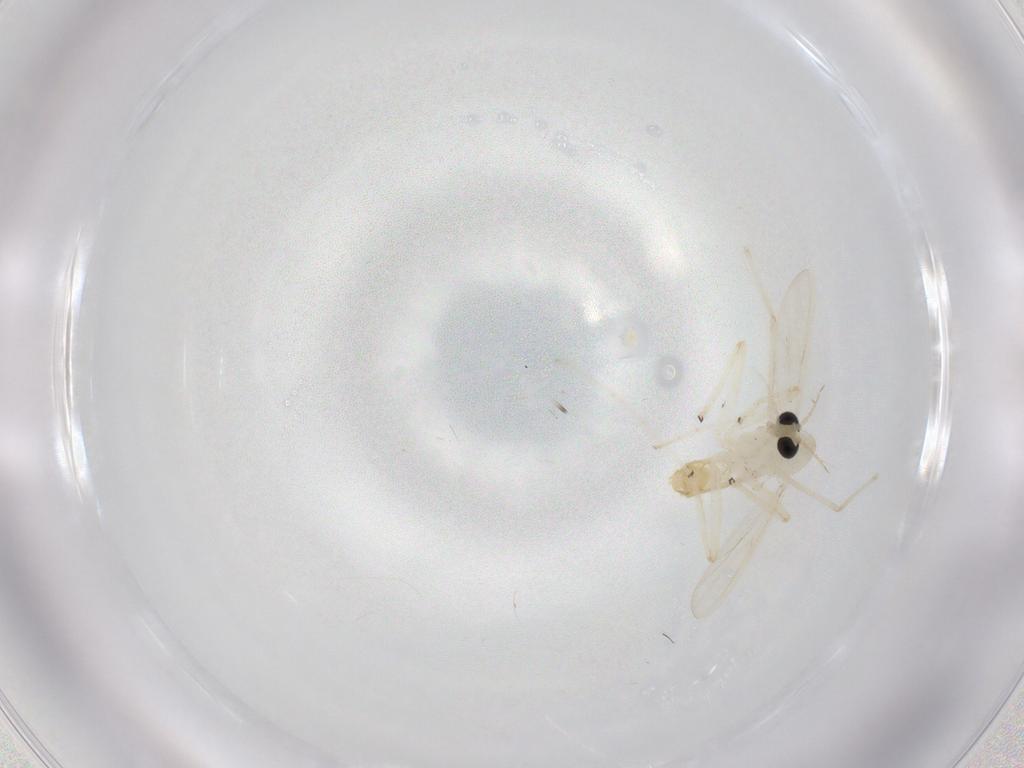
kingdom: Animalia
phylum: Arthropoda
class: Insecta
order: Diptera
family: Chironomidae
